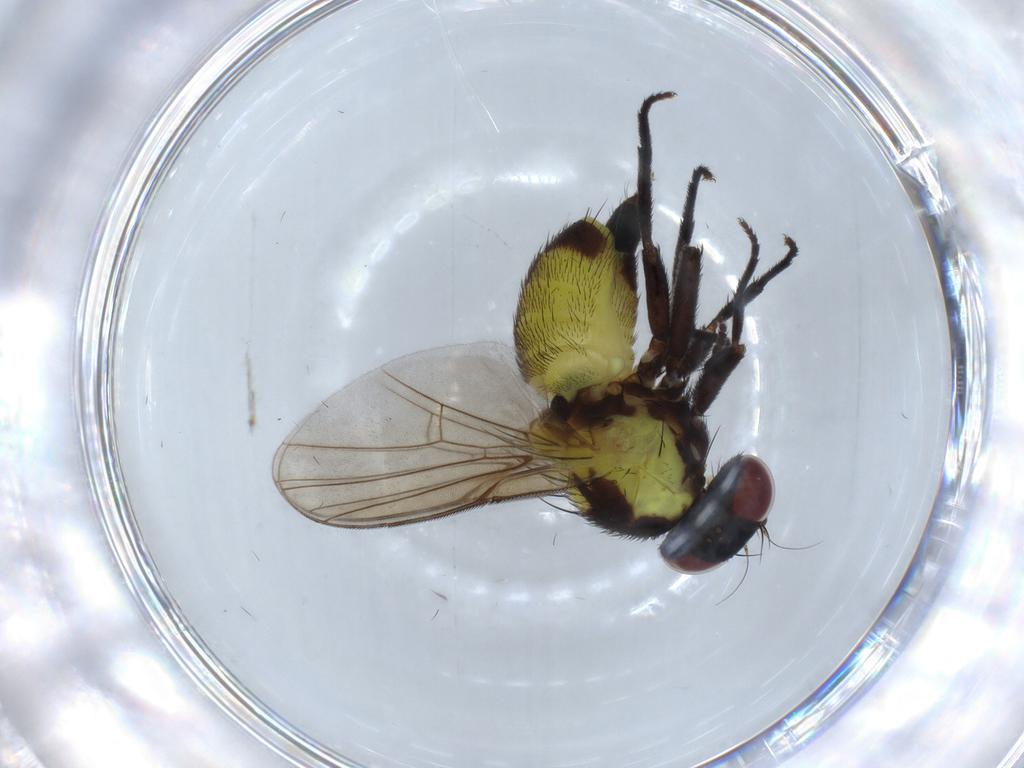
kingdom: Animalia
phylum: Arthropoda
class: Insecta
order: Diptera
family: Agromyzidae
